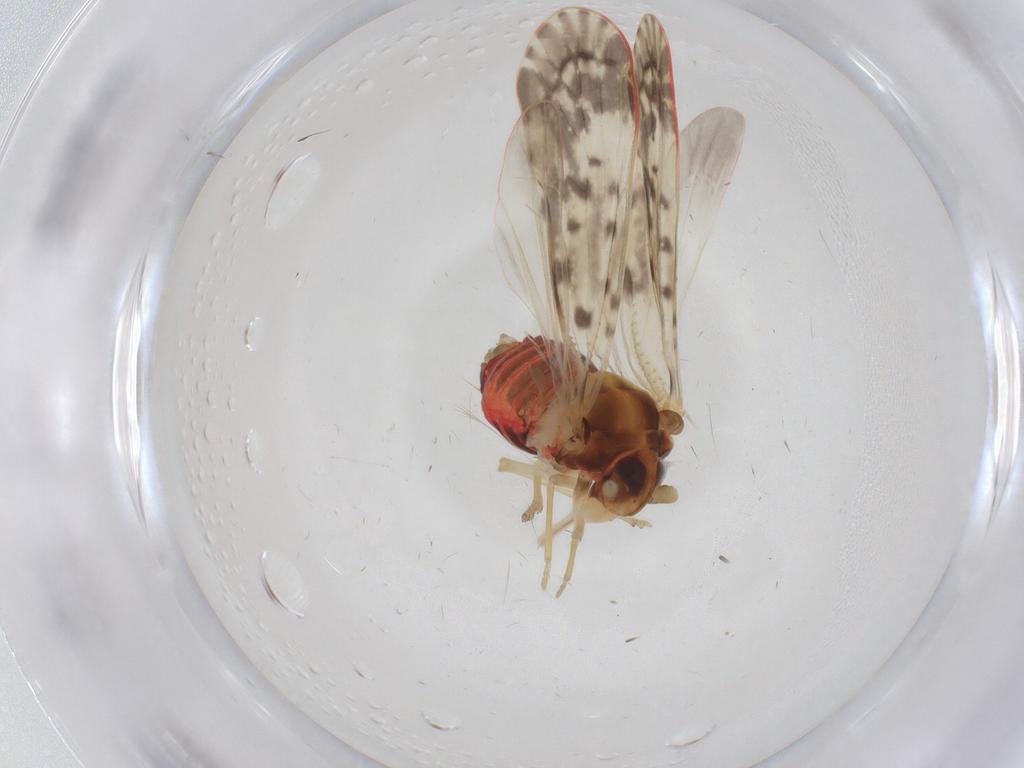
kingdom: Animalia
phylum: Arthropoda
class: Insecta
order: Hemiptera
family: Derbidae
